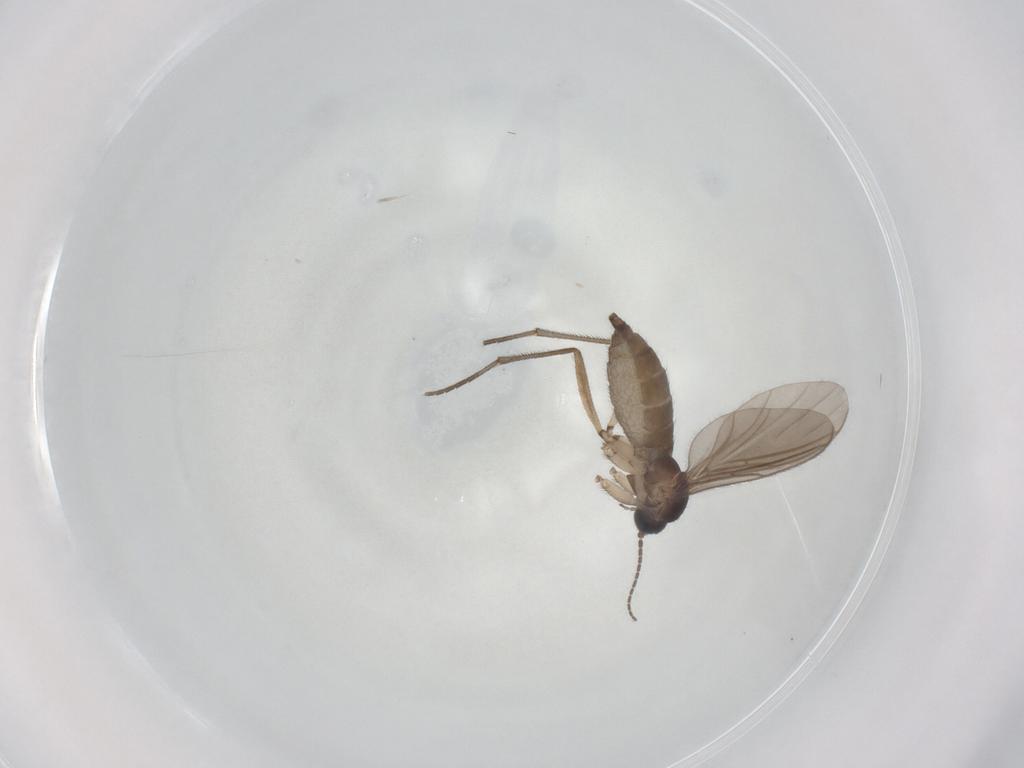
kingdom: Animalia
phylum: Arthropoda
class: Insecta
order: Diptera
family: Sciaridae
